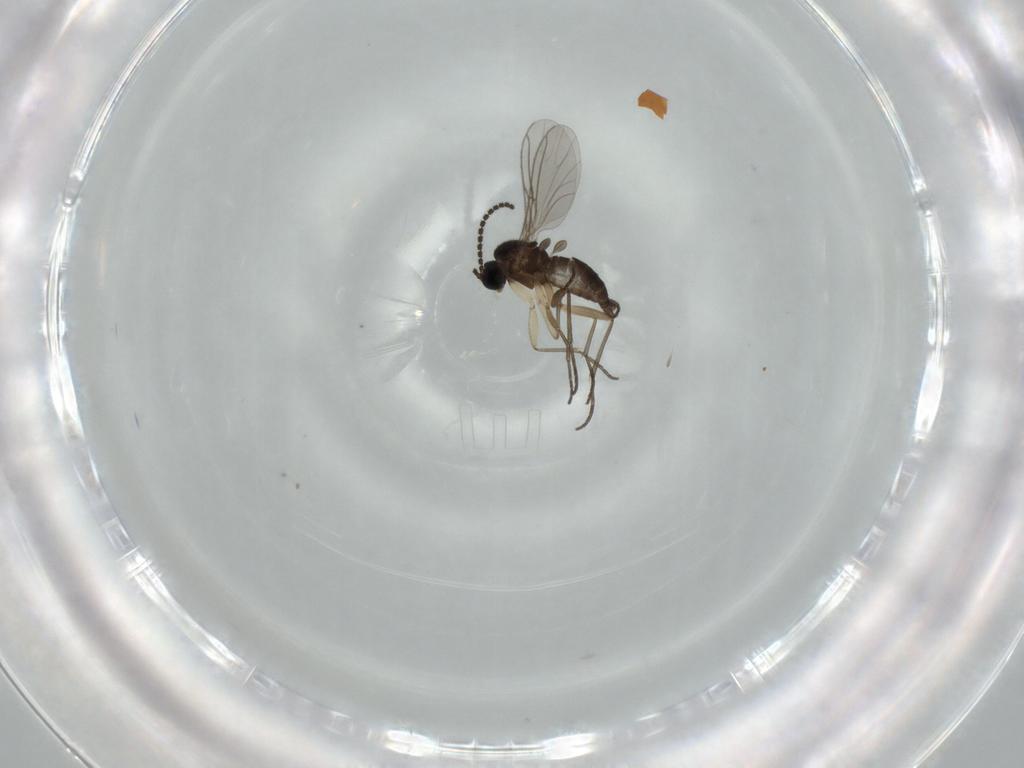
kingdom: Animalia
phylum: Arthropoda
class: Insecta
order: Diptera
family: Sciaridae
